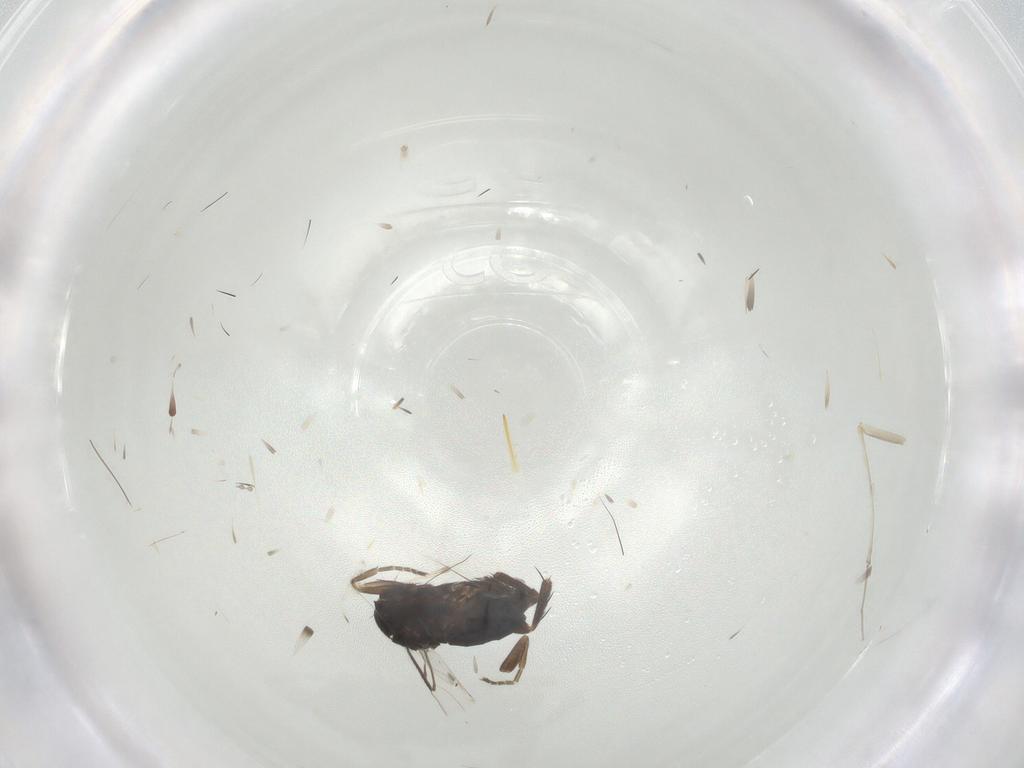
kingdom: Animalia
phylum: Arthropoda
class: Insecta
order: Diptera
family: Phoridae
